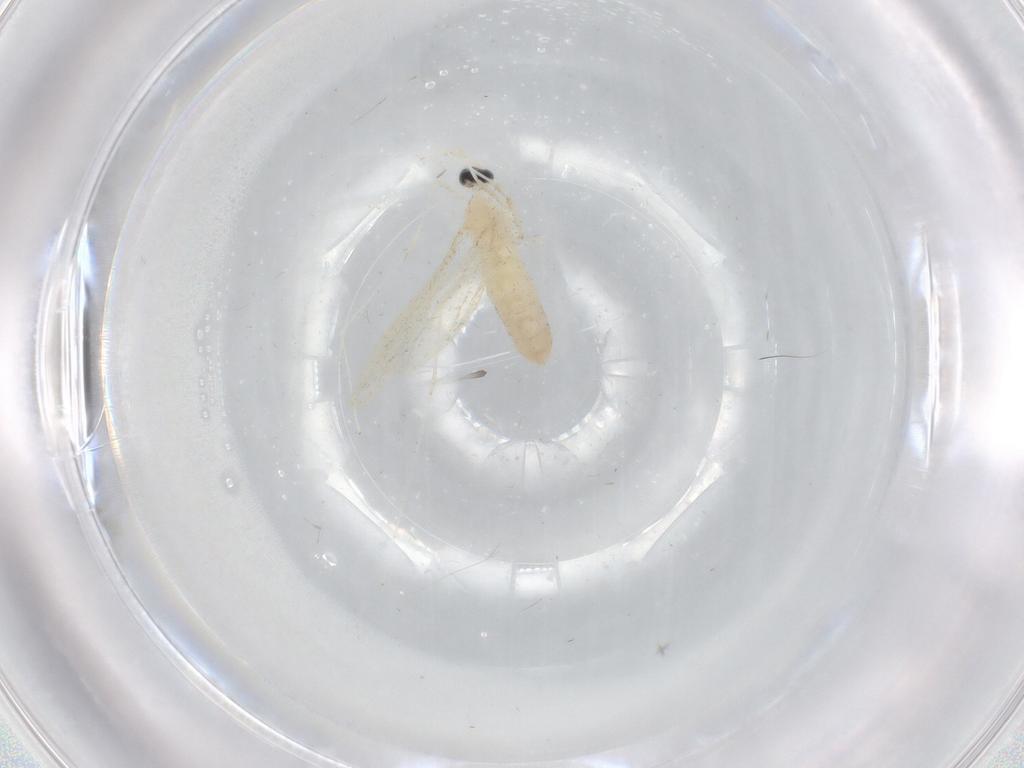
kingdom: Animalia
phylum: Arthropoda
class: Insecta
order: Diptera
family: Cecidomyiidae
